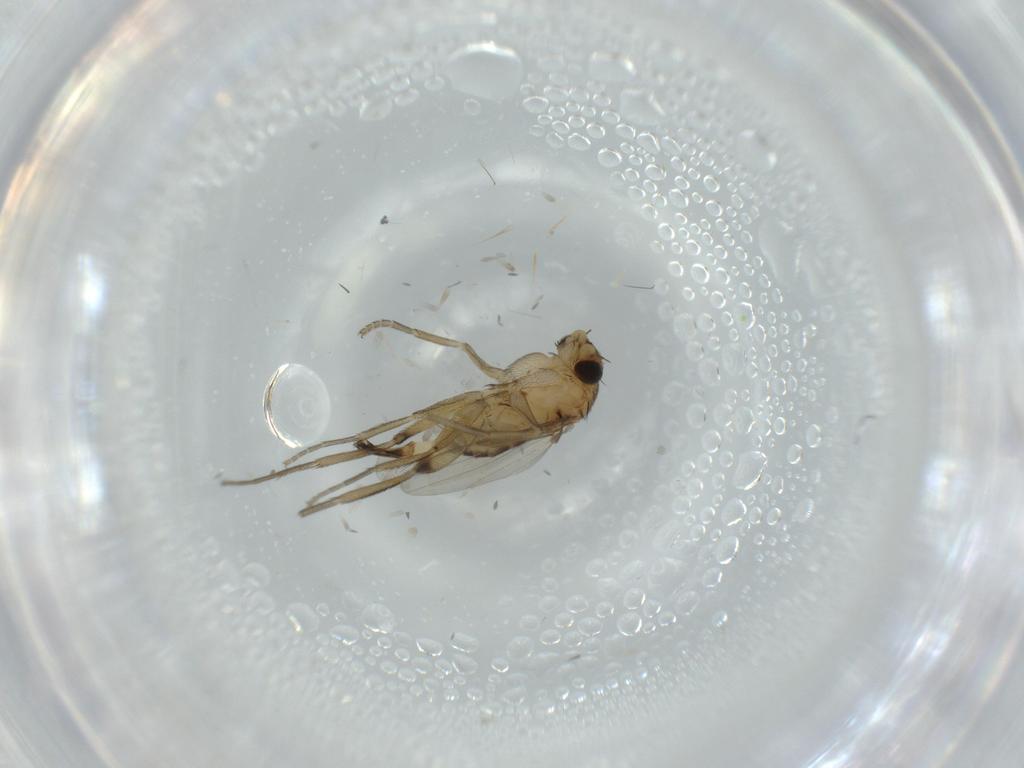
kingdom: Animalia
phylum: Arthropoda
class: Insecta
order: Diptera
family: Phoridae
